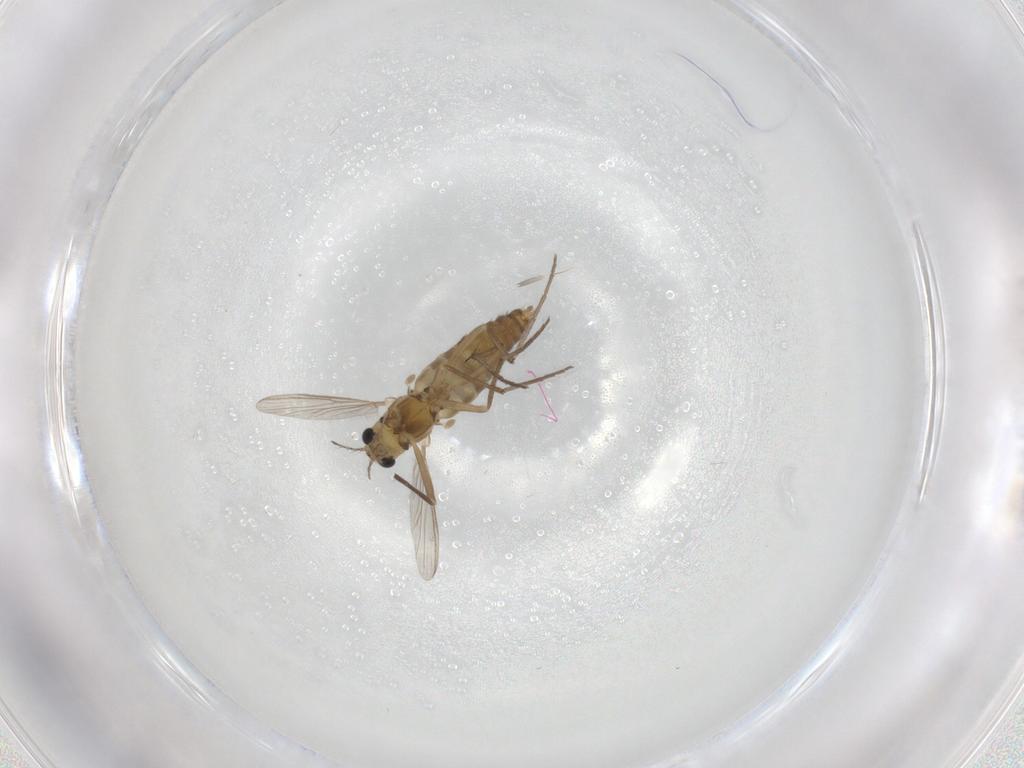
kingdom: Animalia
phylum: Arthropoda
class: Insecta
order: Diptera
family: Chironomidae
